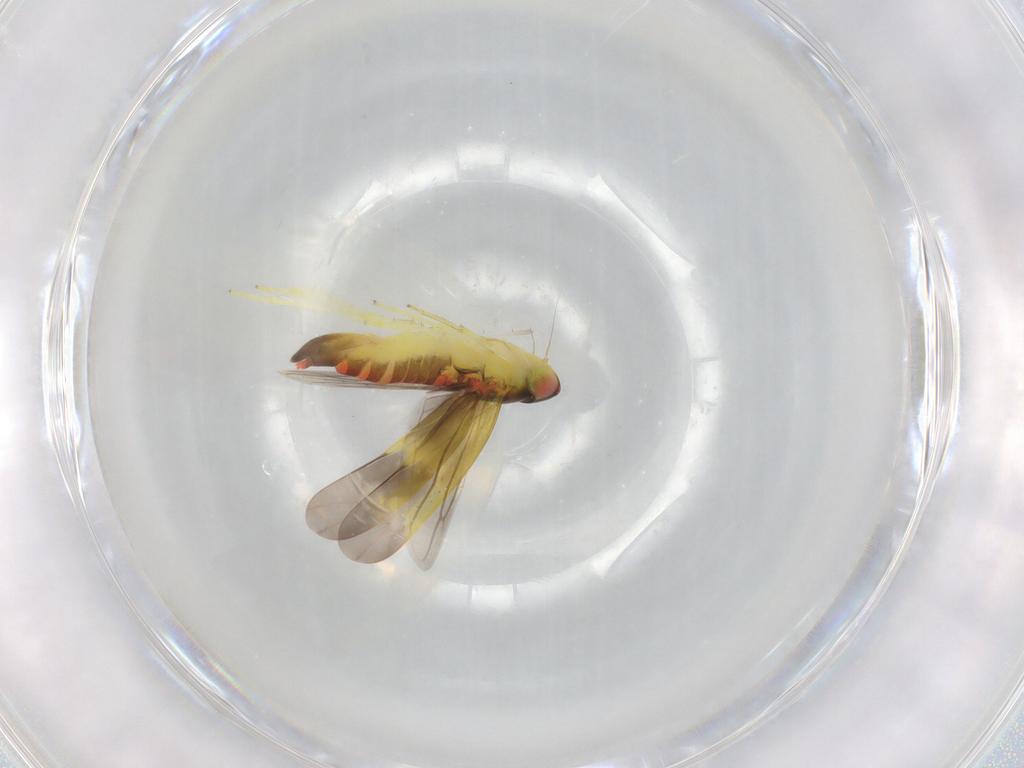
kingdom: Animalia
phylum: Arthropoda
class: Insecta
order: Hemiptera
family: Cicadellidae
